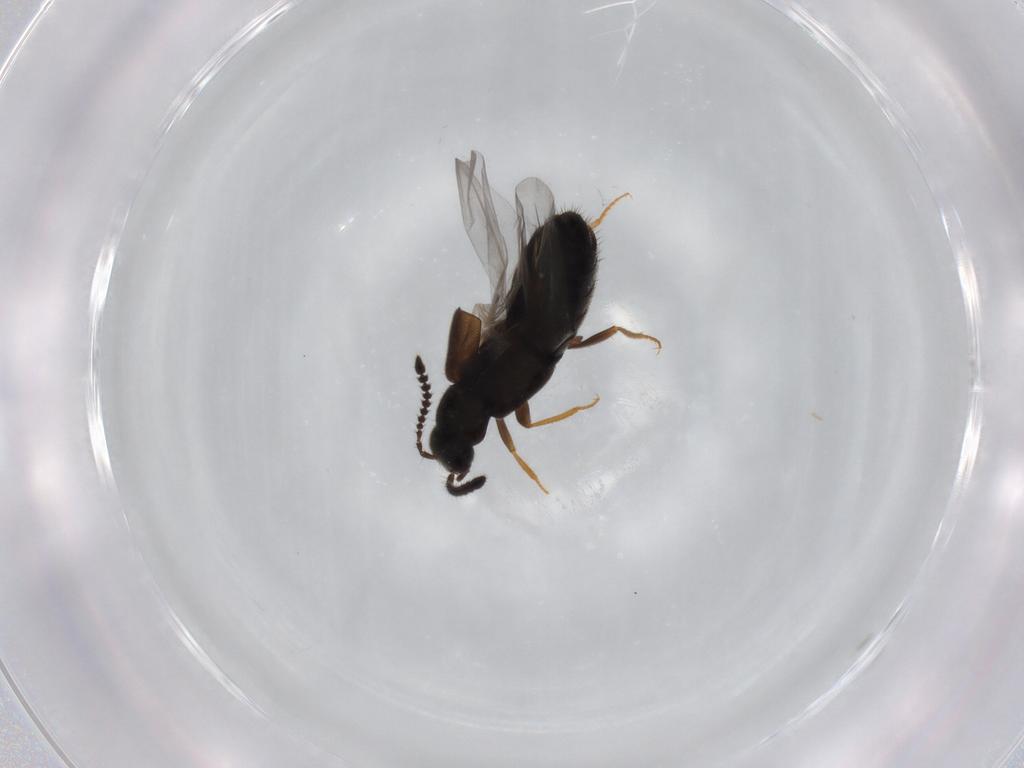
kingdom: Animalia
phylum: Arthropoda
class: Insecta
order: Coleoptera
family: Staphylinidae
